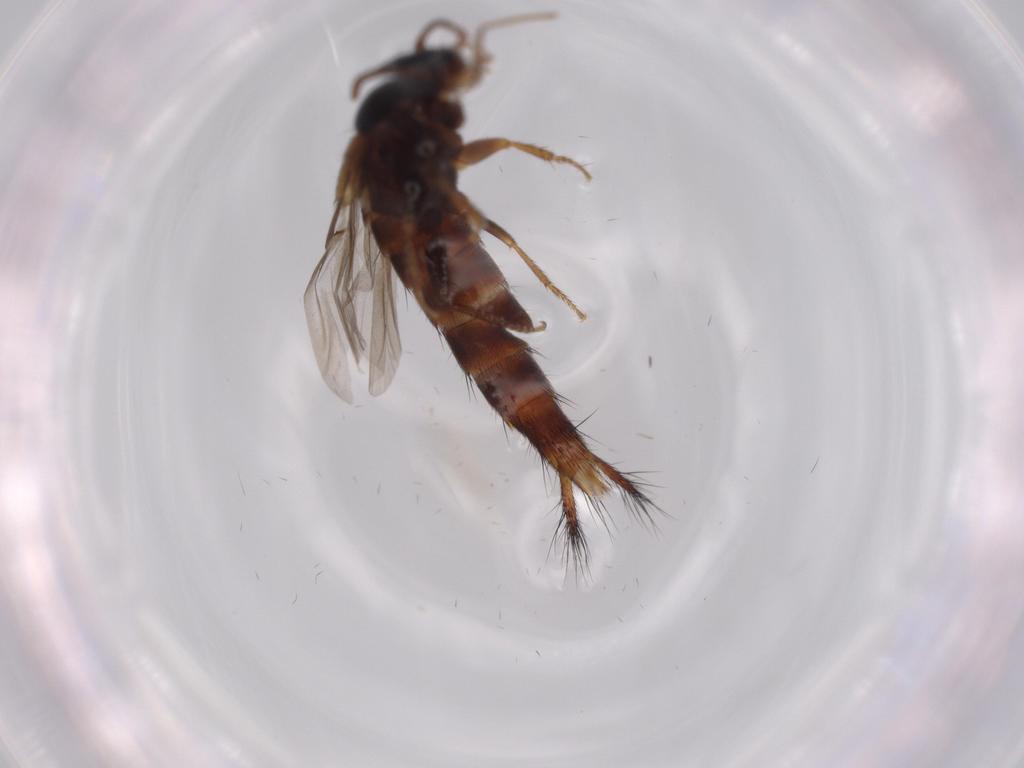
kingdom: Animalia
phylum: Arthropoda
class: Insecta
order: Coleoptera
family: Staphylinidae
